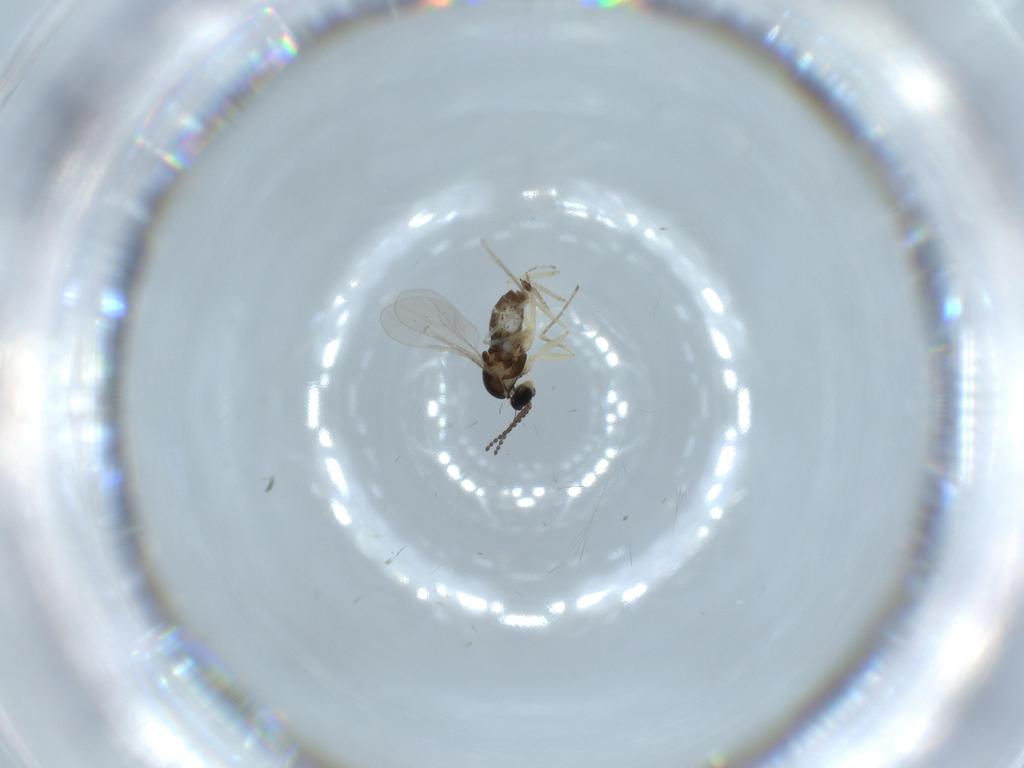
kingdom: Animalia
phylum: Arthropoda
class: Insecta
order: Diptera
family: Cecidomyiidae
